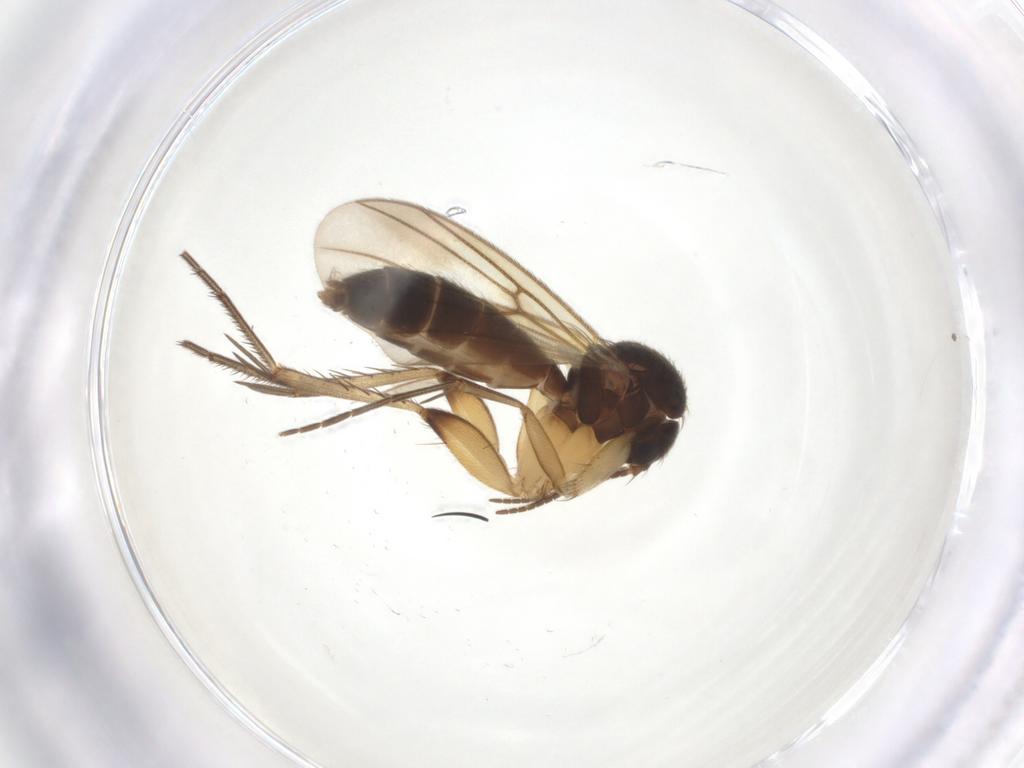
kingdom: Animalia
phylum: Arthropoda
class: Insecta
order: Diptera
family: Mycetophilidae
